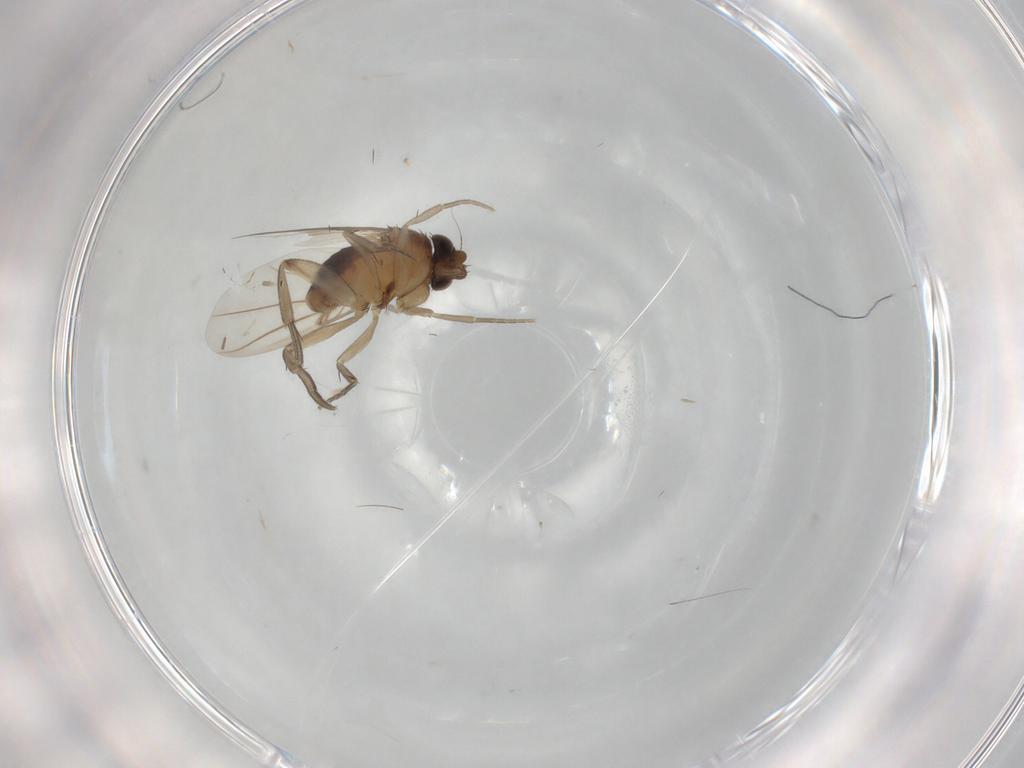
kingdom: Animalia
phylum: Arthropoda
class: Insecta
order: Diptera
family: Phoridae
